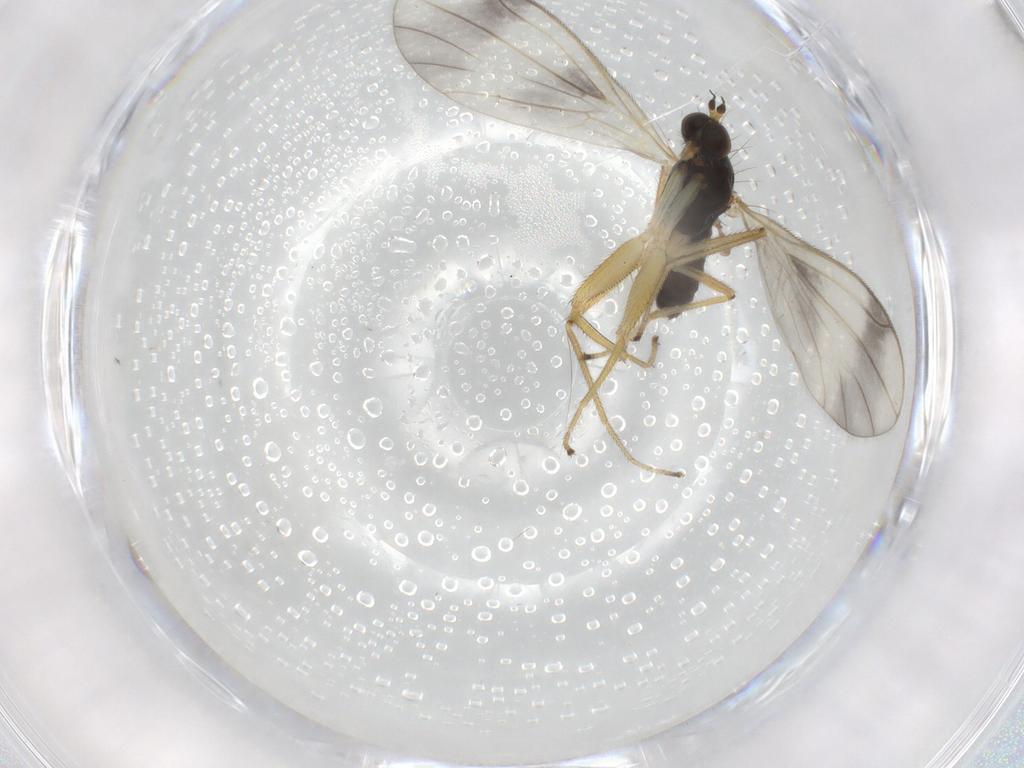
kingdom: Animalia
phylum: Arthropoda
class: Insecta
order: Diptera
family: Empididae
